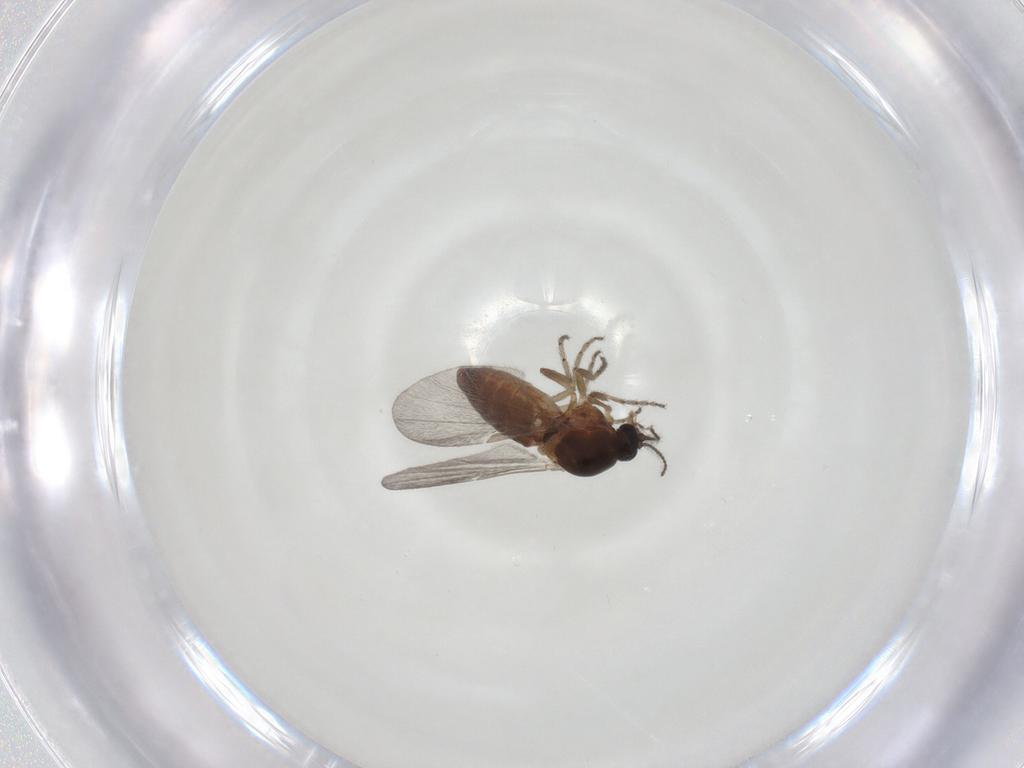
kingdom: Animalia
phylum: Arthropoda
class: Insecta
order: Diptera
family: Ceratopogonidae
